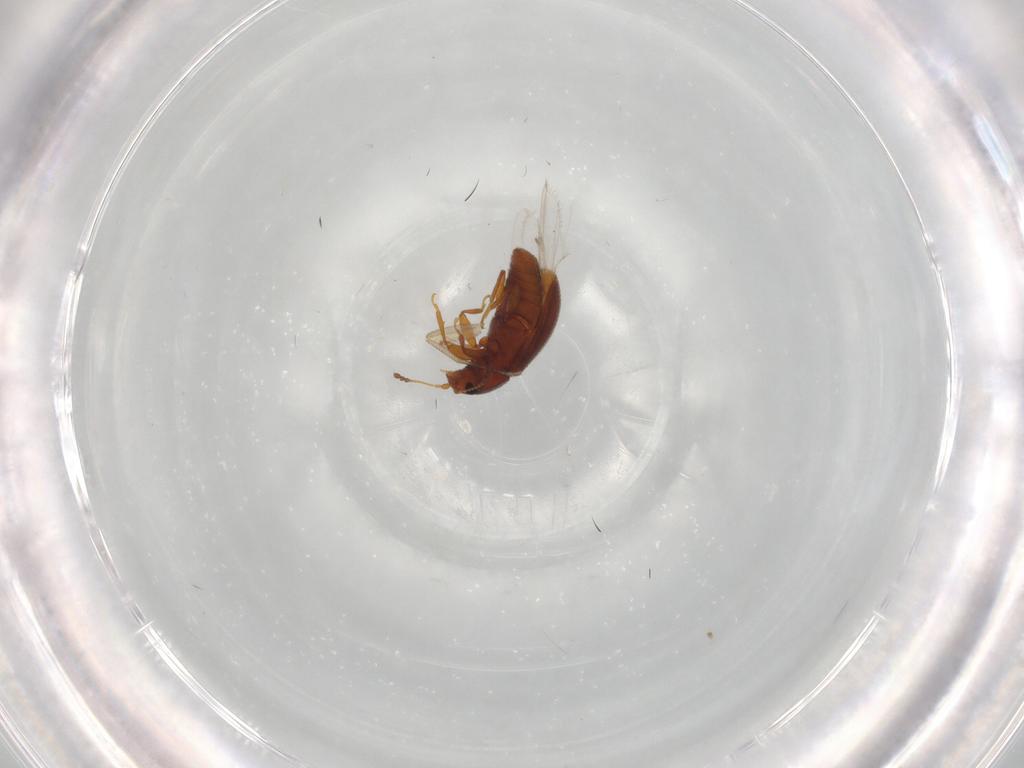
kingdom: Animalia
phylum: Arthropoda
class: Insecta
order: Coleoptera
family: Latridiidae
